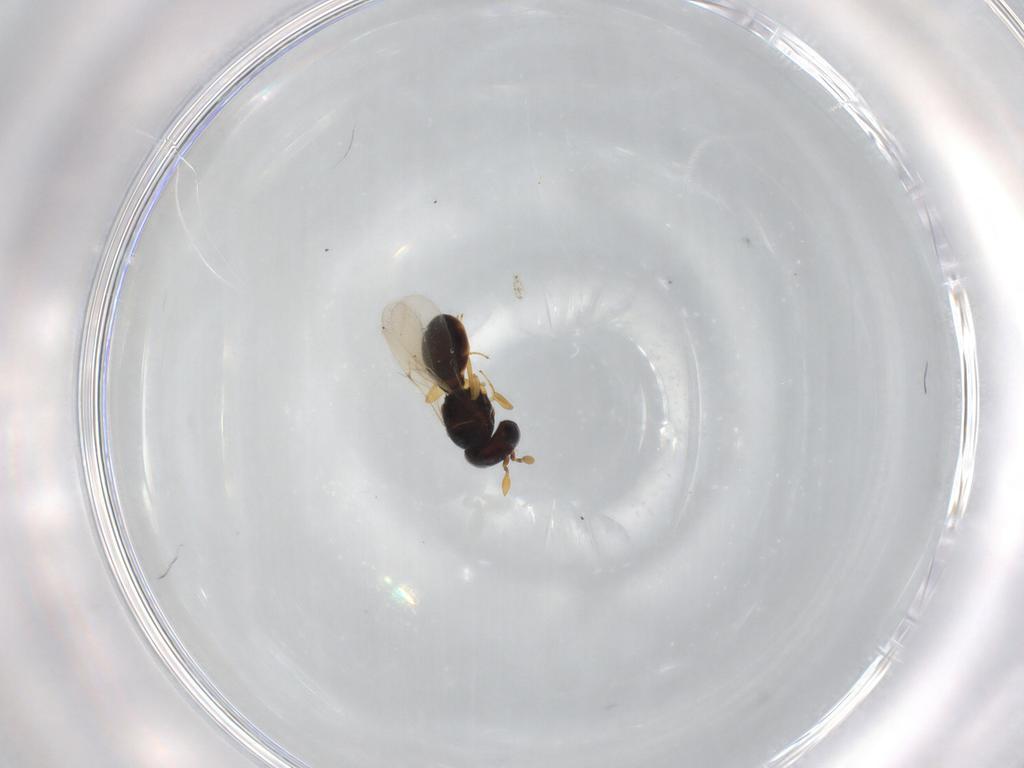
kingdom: Animalia
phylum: Arthropoda
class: Insecta
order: Hymenoptera
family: Scelionidae
